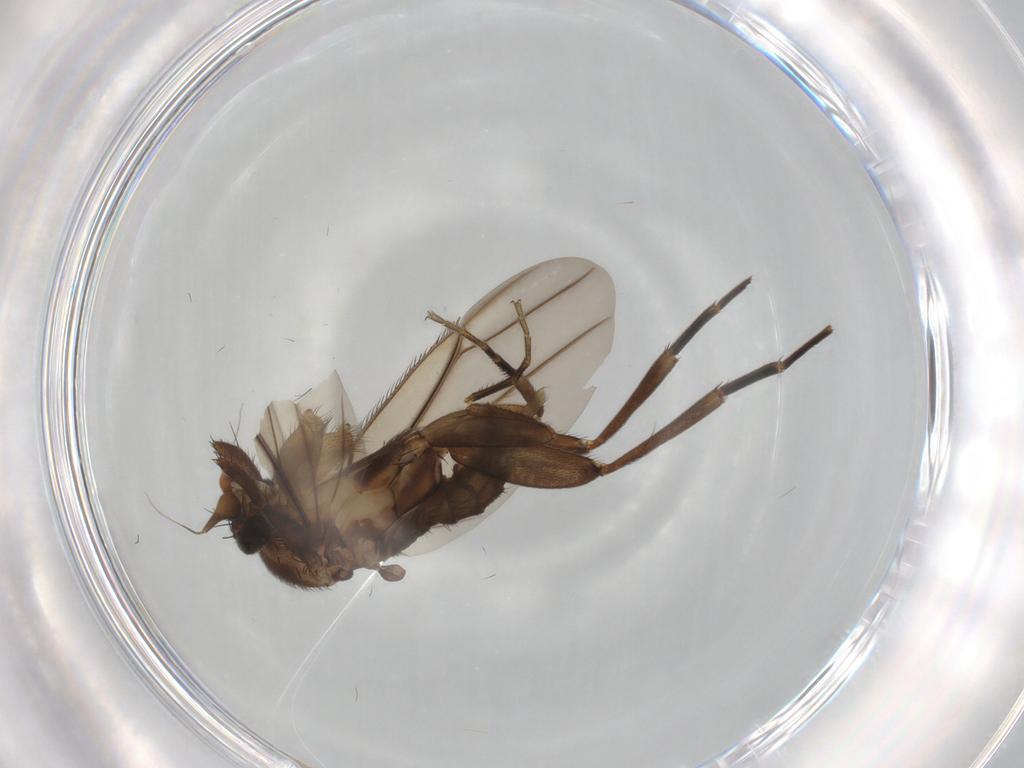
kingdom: Animalia
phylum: Arthropoda
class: Insecta
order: Diptera
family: Phoridae
